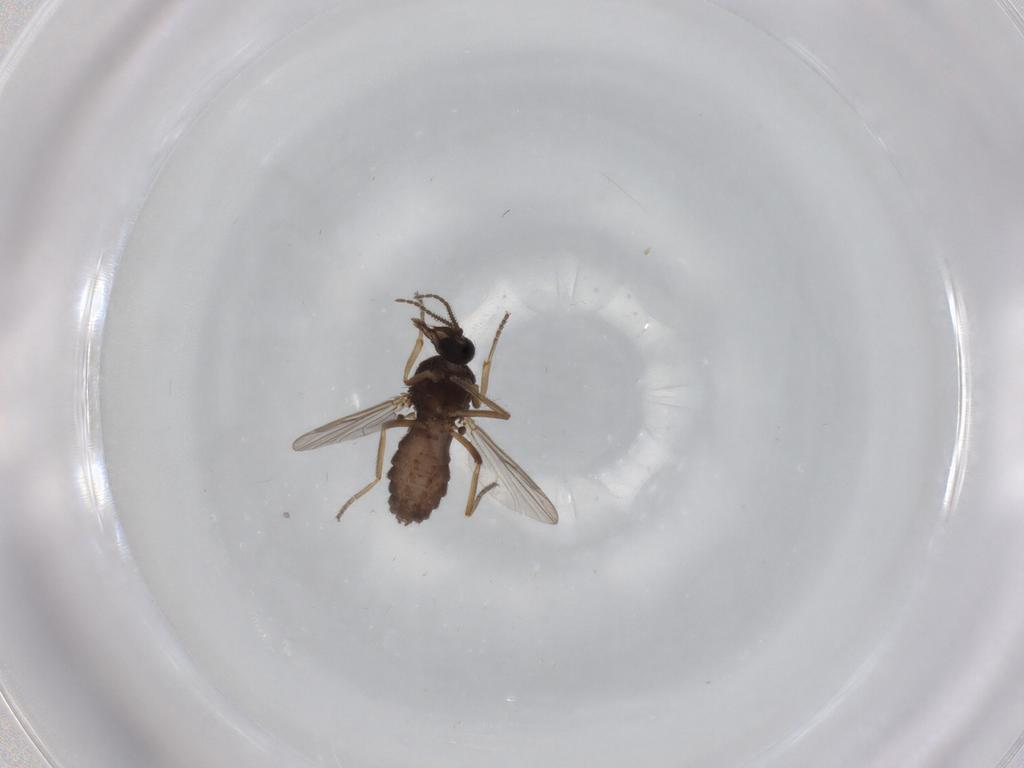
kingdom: Animalia
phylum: Arthropoda
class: Insecta
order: Diptera
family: Ceratopogonidae
